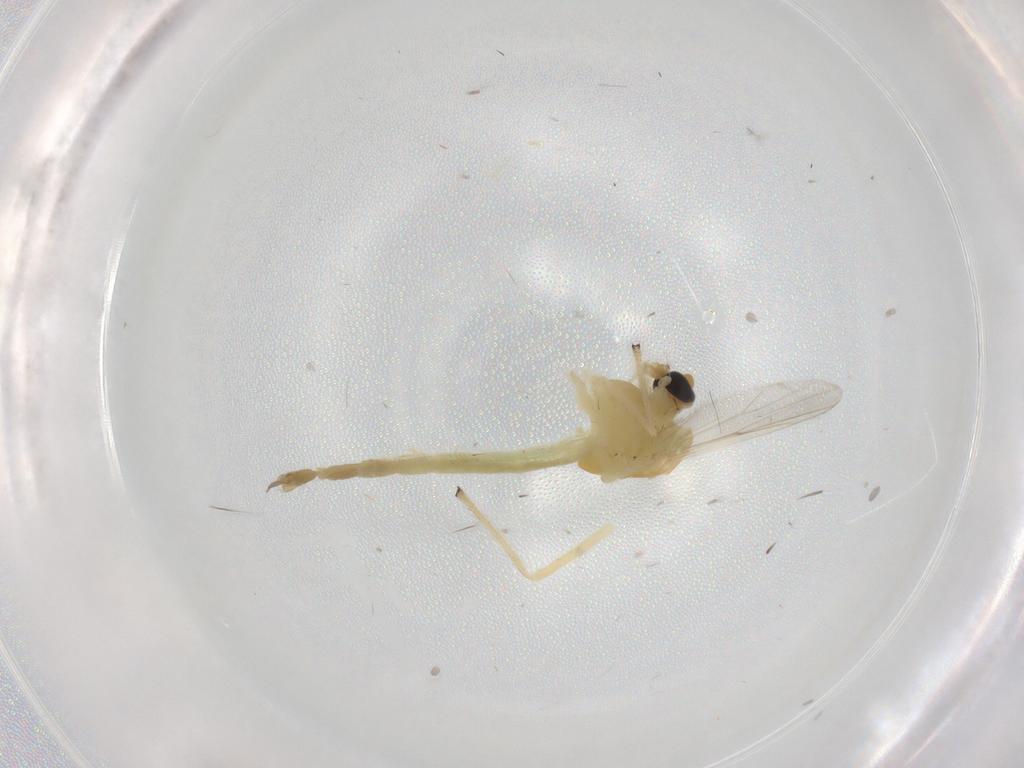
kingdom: Animalia
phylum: Arthropoda
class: Insecta
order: Diptera
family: Chironomidae
